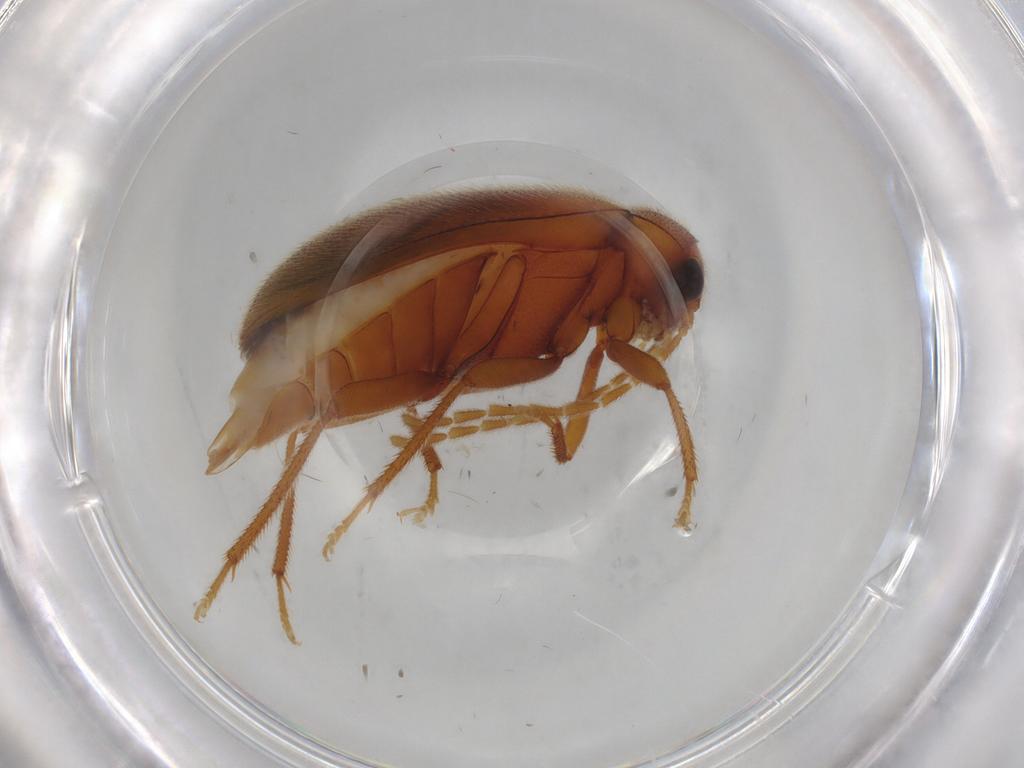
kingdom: Animalia
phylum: Arthropoda
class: Insecta
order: Coleoptera
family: Ptilodactylidae
